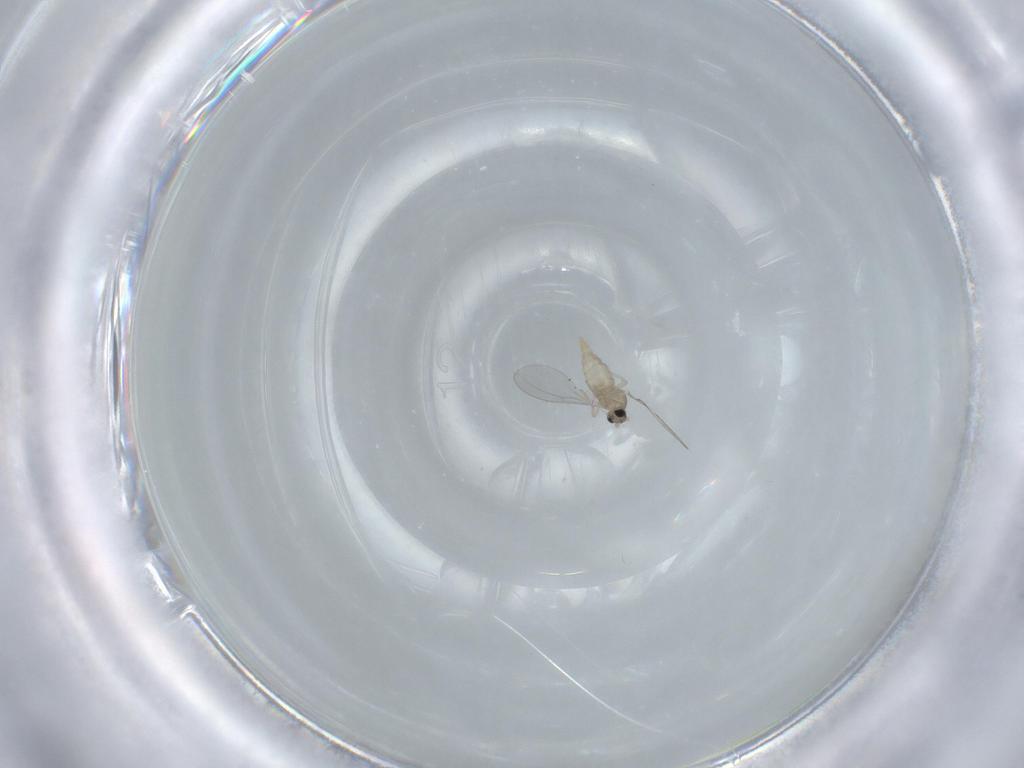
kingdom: Animalia
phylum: Arthropoda
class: Insecta
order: Diptera
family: Cecidomyiidae
